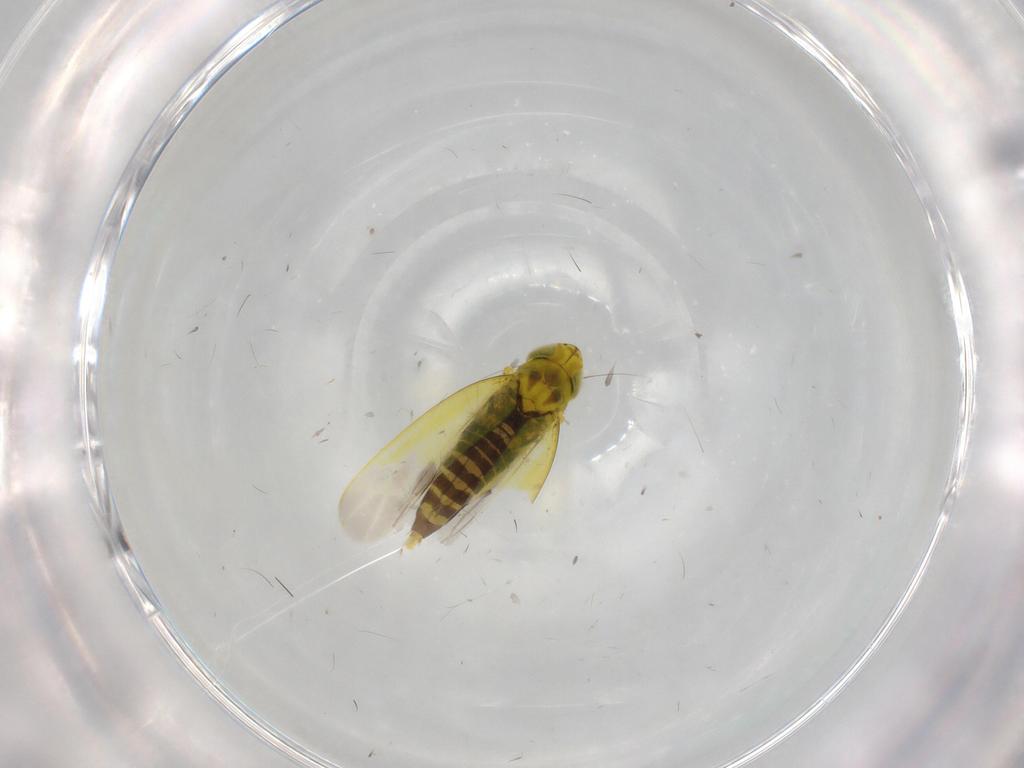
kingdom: Animalia
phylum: Arthropoda
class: Insecta
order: Hemiptera
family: Cicadellidae
